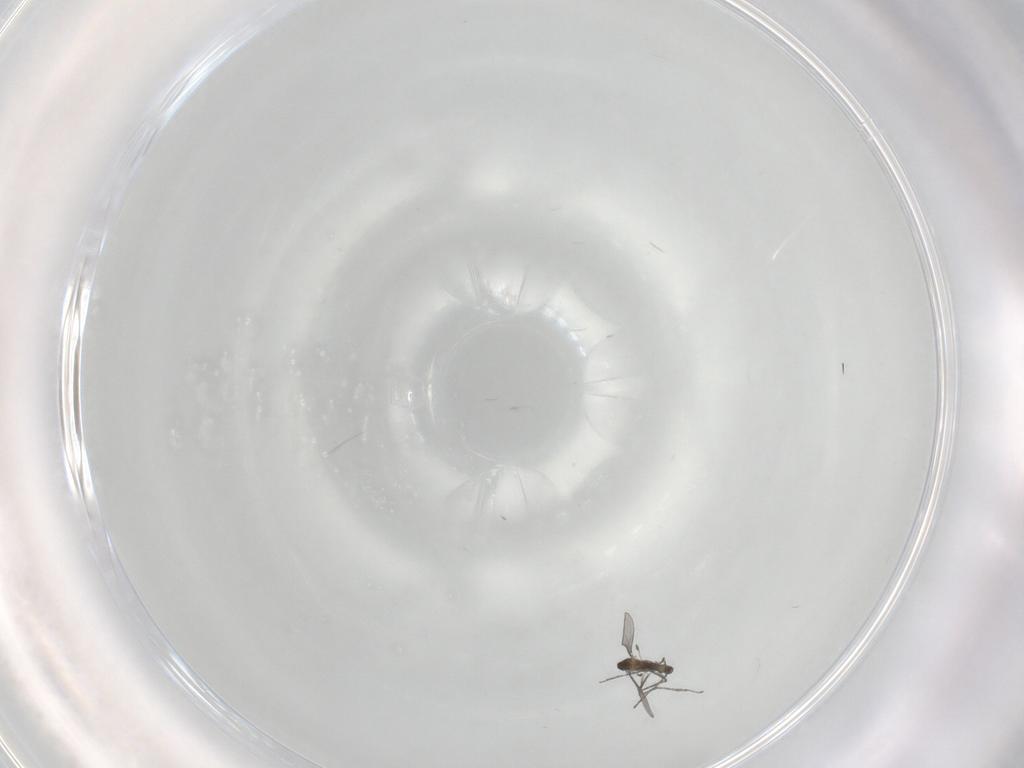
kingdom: Animalia
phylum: Arthropoda
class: Insecta
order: Diptera
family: Cecidomyiidae
